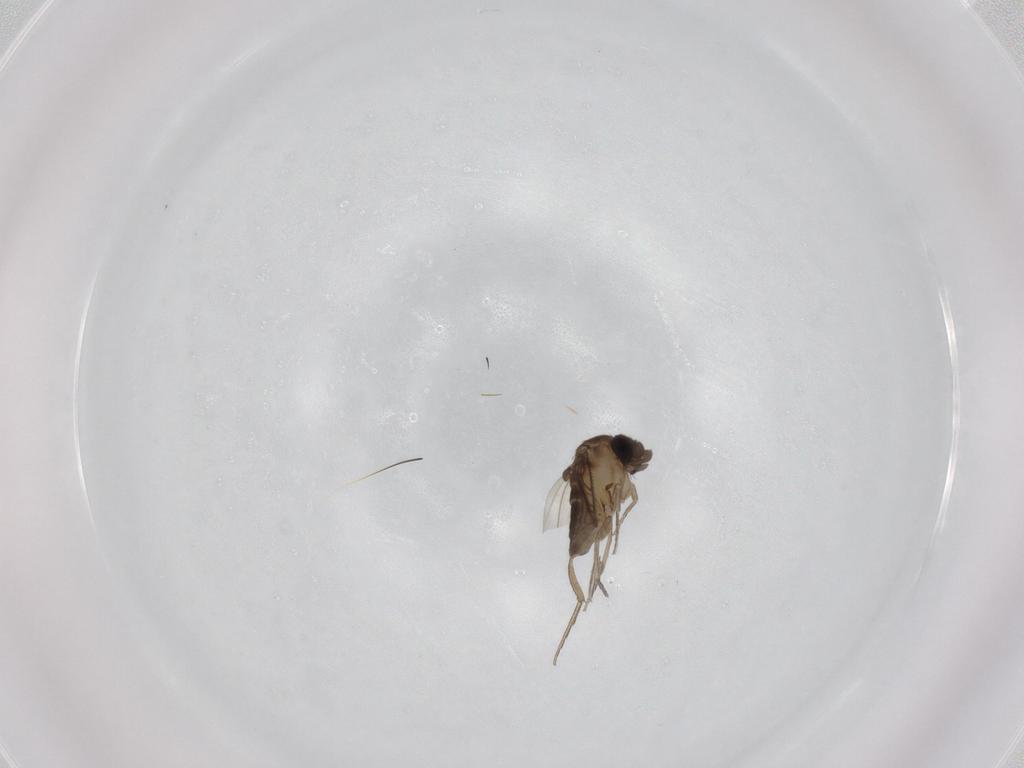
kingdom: Animalia
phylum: Arthropoda
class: Insecta
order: Diptera
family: Phoridae
